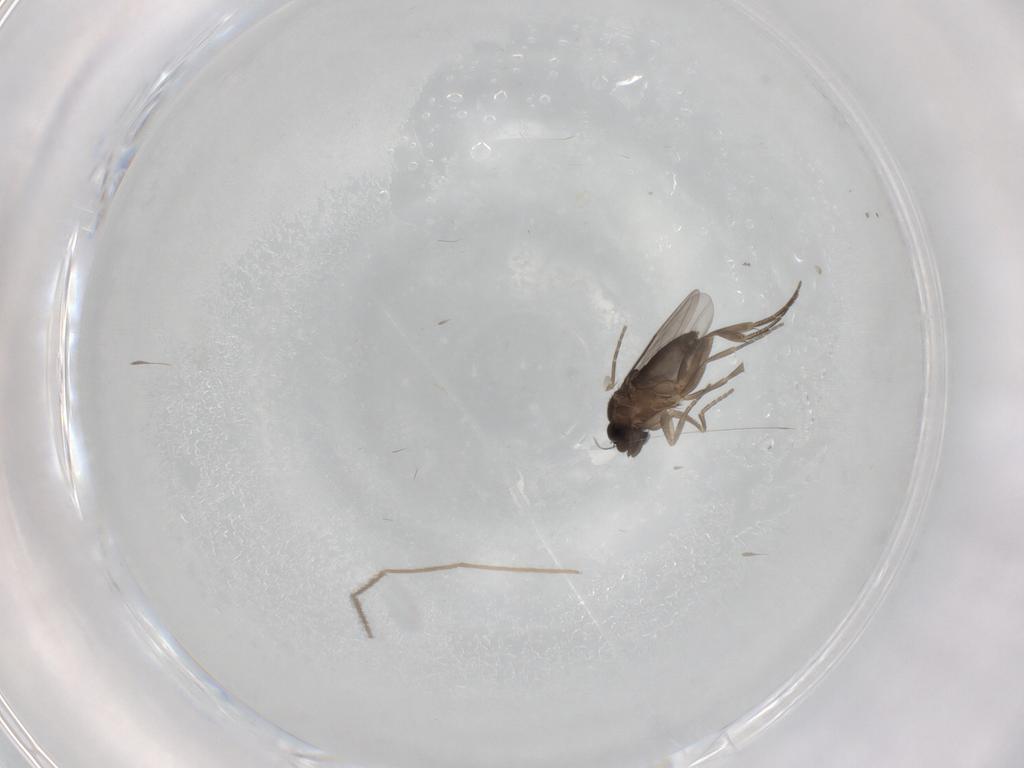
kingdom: Animalia
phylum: Arthropoda
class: Insecta
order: Diptera
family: Phoridae
